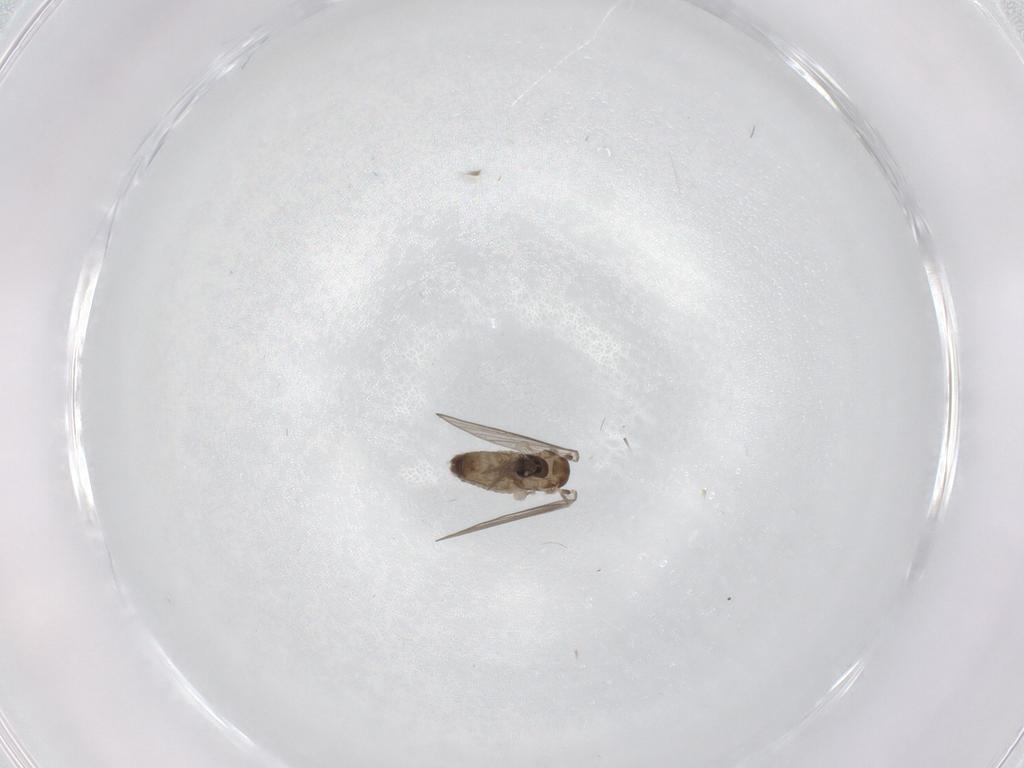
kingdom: Animalia
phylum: Arthropoda
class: Insecta
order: Diptera
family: Psychodidae
